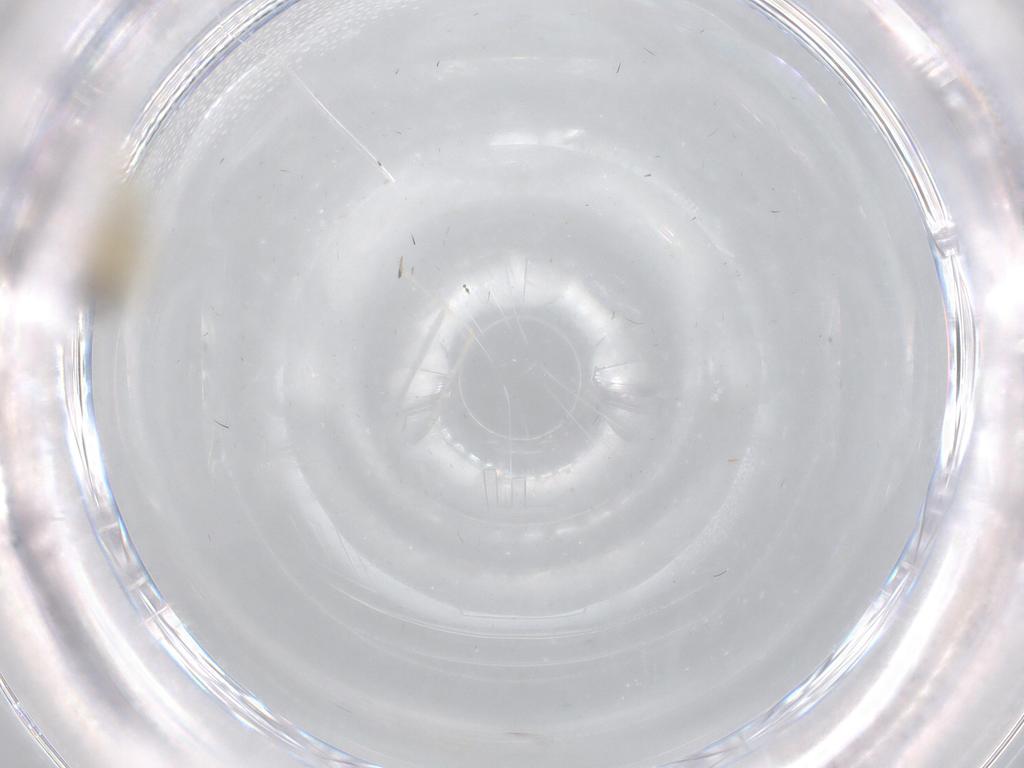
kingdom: Animalia
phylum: Arthropoda
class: Insecta
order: Diptera
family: Cecidomyiidae
